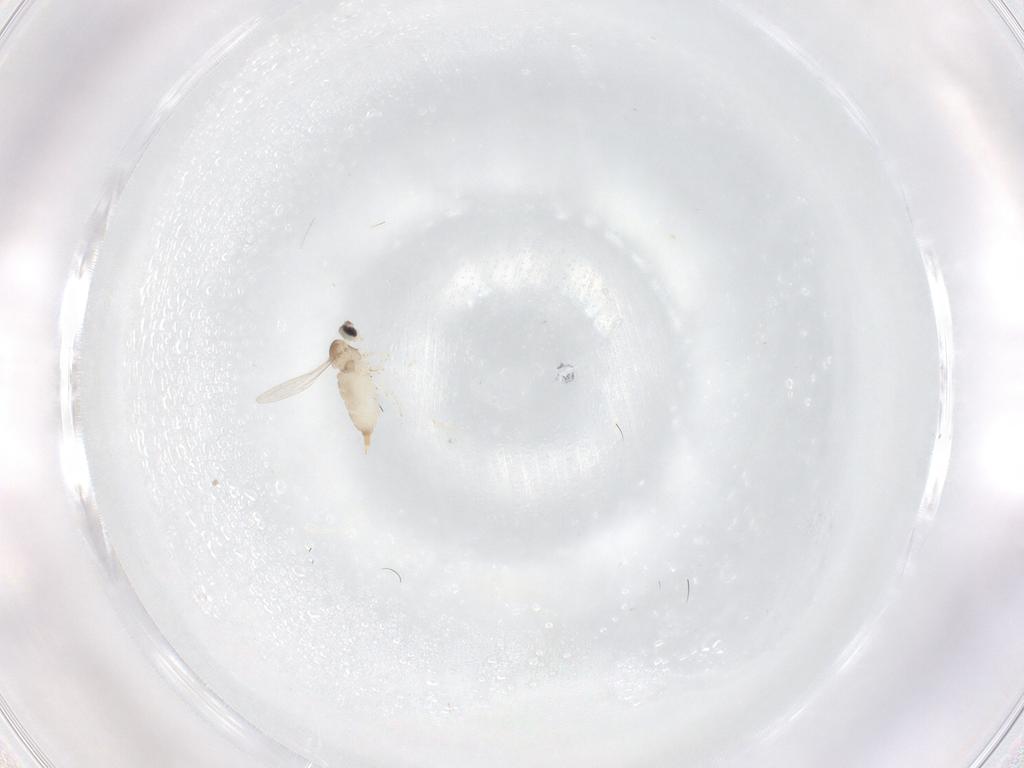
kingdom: Animalia
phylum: Arthropoda
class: Insecta
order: Diptera
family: Cecidomyiidae
